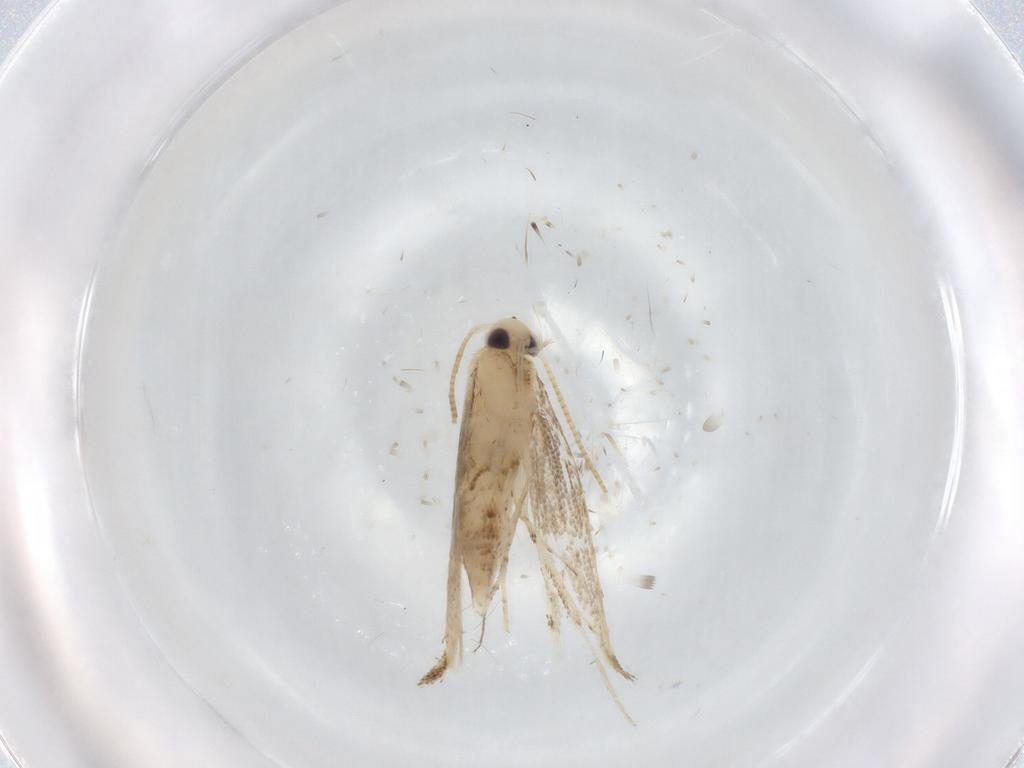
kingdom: Animalia
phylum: Arthropoda
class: Insecta
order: Lepidoptera
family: Gracillariidae
